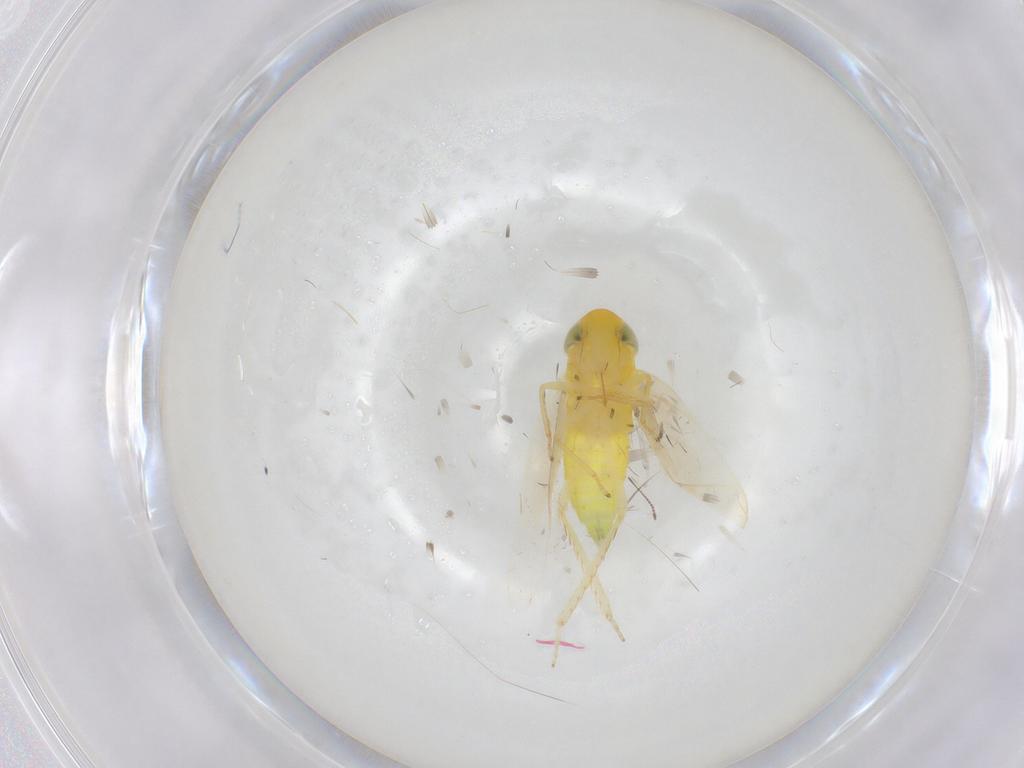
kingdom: Animalia
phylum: Arthropoda
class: Insecta
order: Hemiptera
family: Cicadellidae
